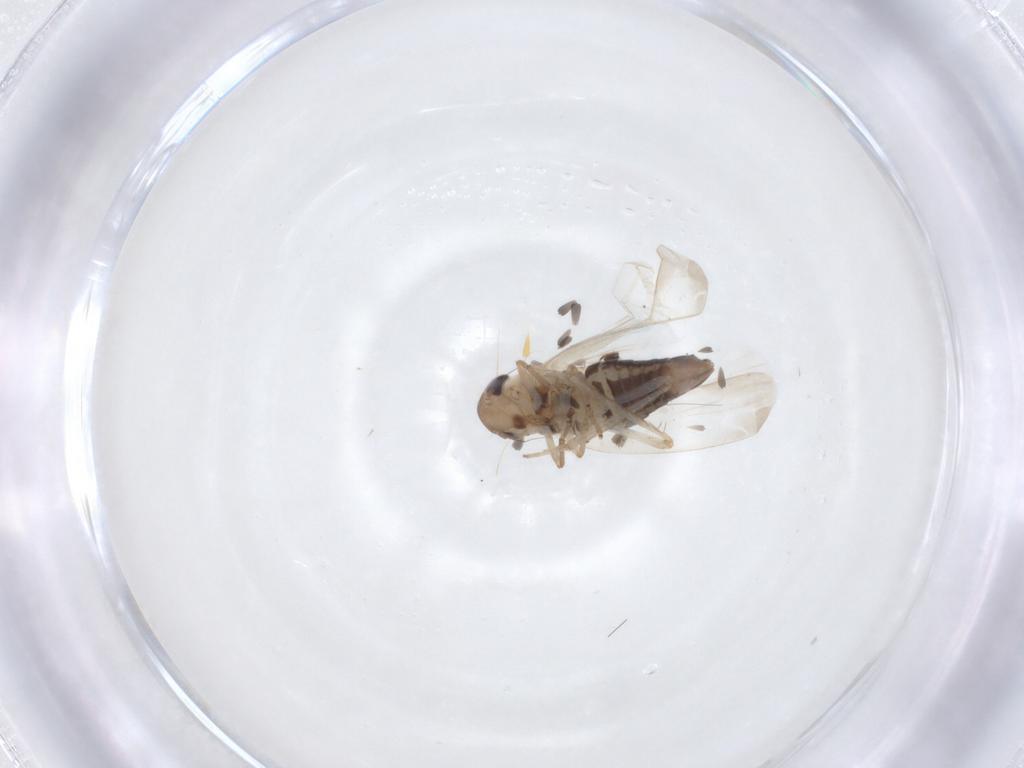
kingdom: Animalia
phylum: Arthropoda
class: Insecta
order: Hemiptera
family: Cicadellidae
